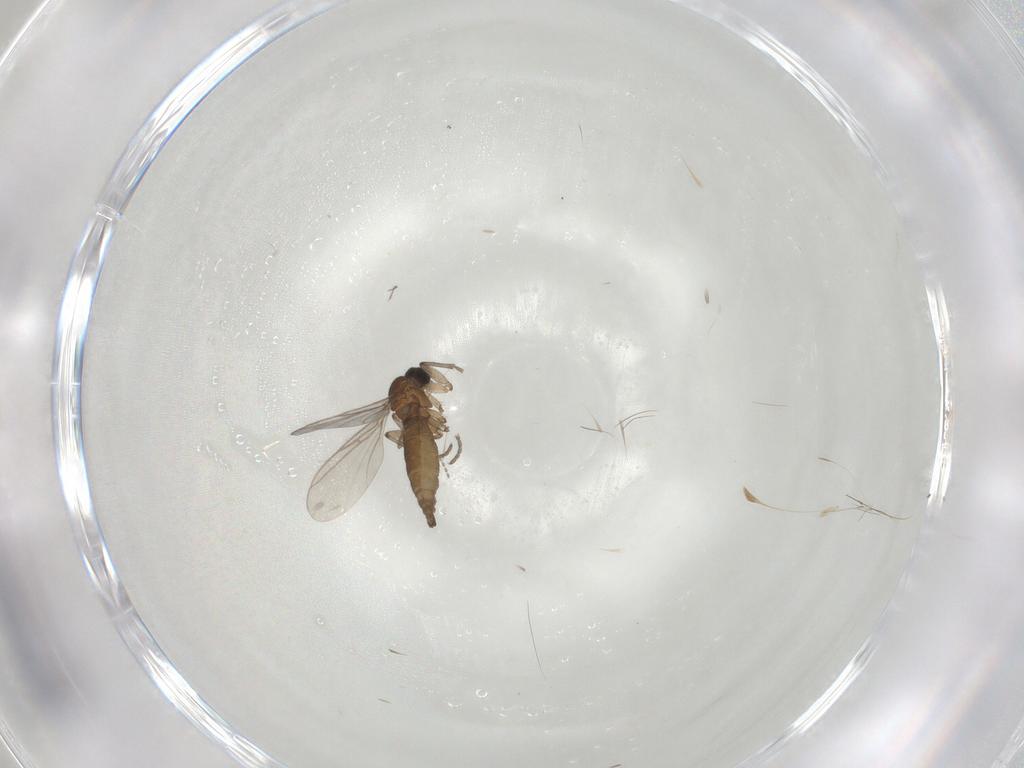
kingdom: Animalia
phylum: Arthropoda
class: Insecta
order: Diptera
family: Cecidomyiidae
